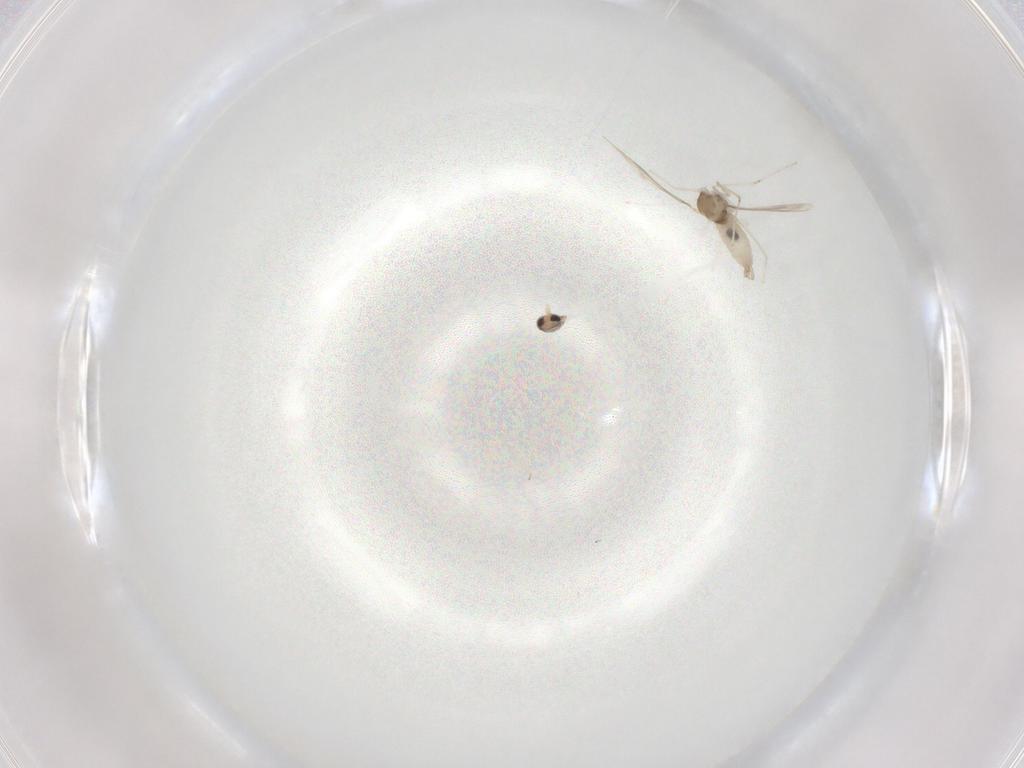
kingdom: Animalia
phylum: Arthropoda
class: Insecta
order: Diptera
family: Cecidomyiidae
